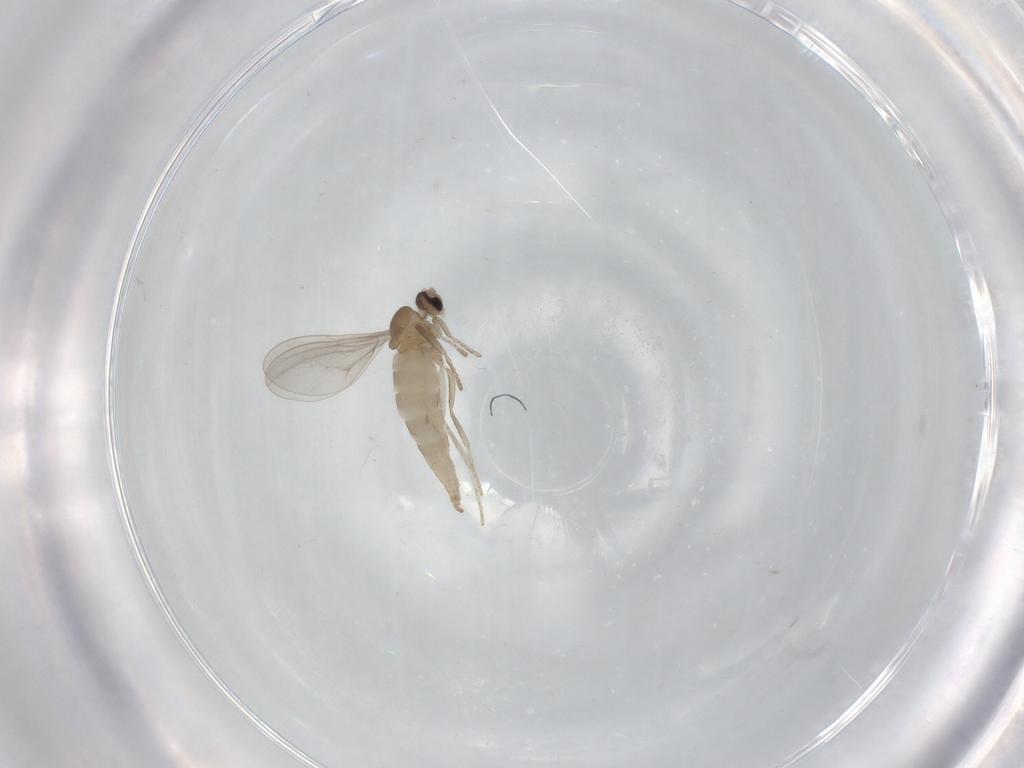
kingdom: Animalia
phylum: Arthropoda
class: Insecta
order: Diptera
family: Cecidomyiidae
